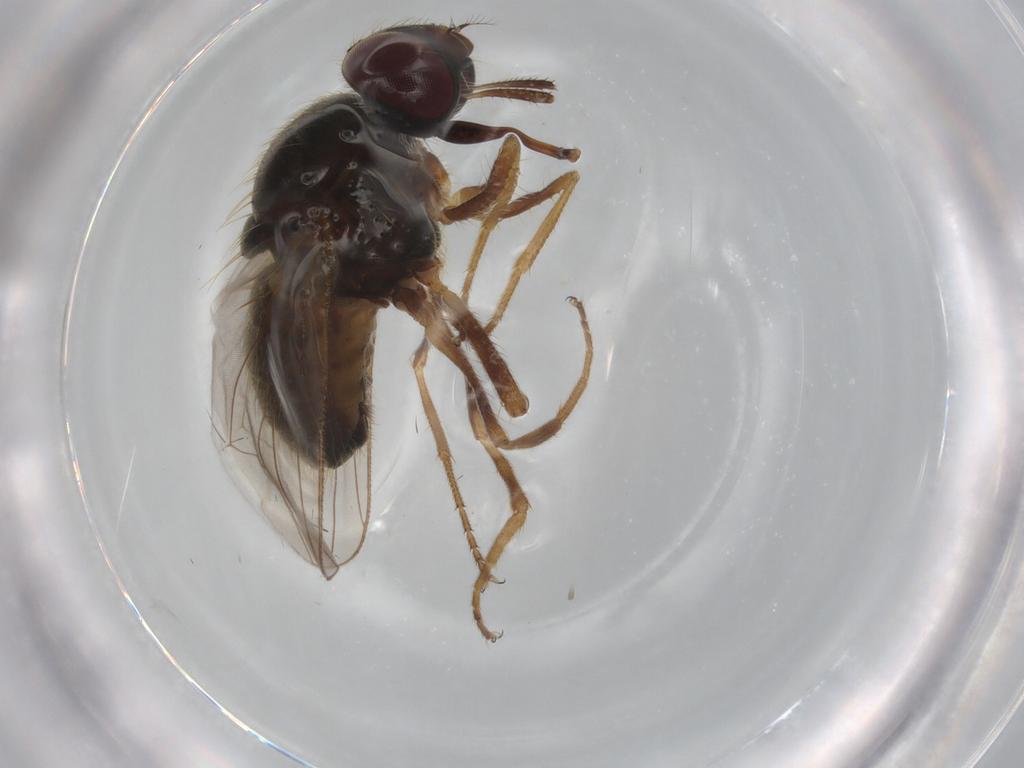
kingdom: Animalia
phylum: Arthropoda
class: Insecta
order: Diptera
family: Muscidae
